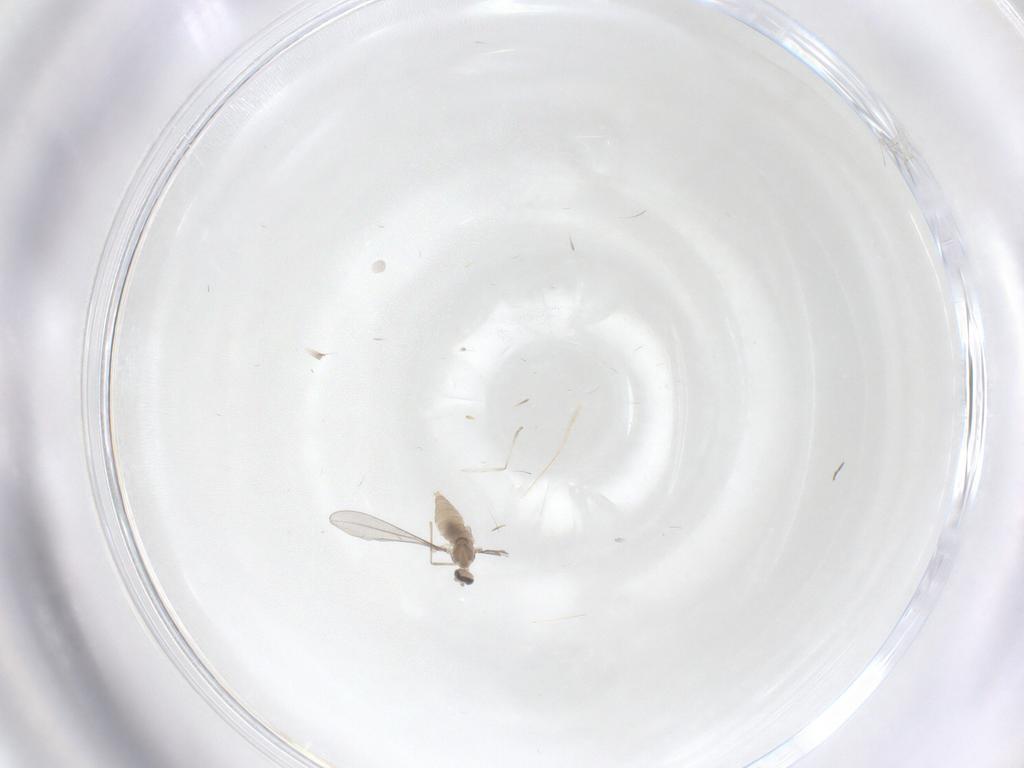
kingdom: Animalia
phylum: Arthropoda
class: Insecta
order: Diptera
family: Cecidomyiidae
